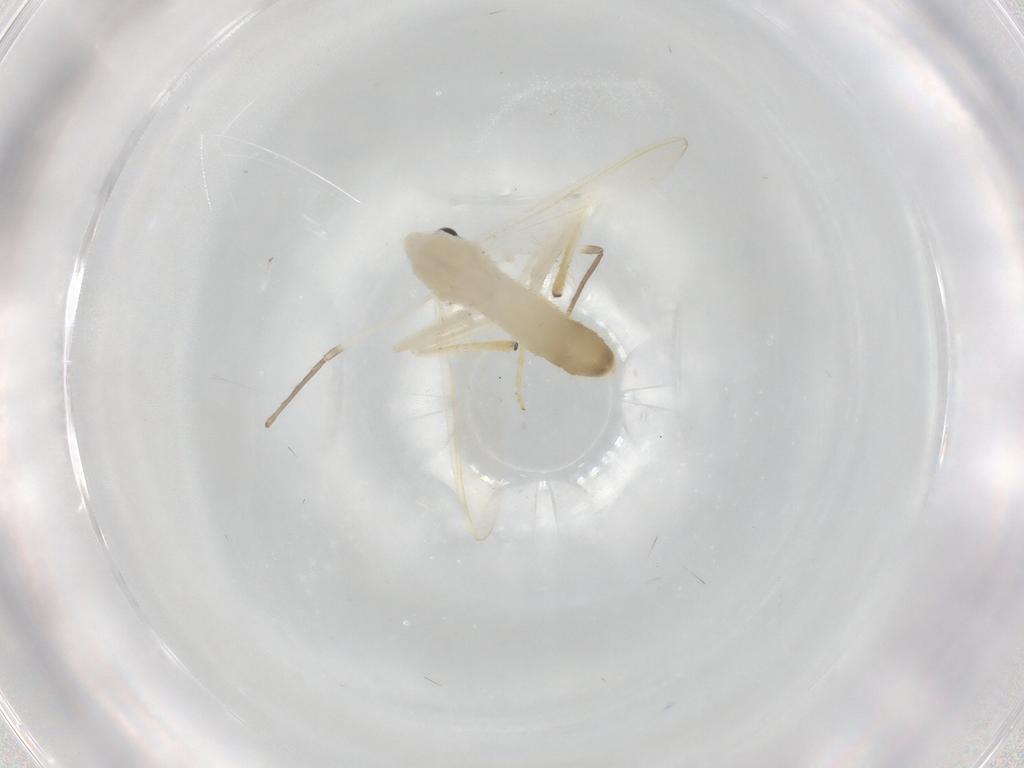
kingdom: Animalia
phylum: Arthropoda
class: Insecta
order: Diptera
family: Chironomidae
